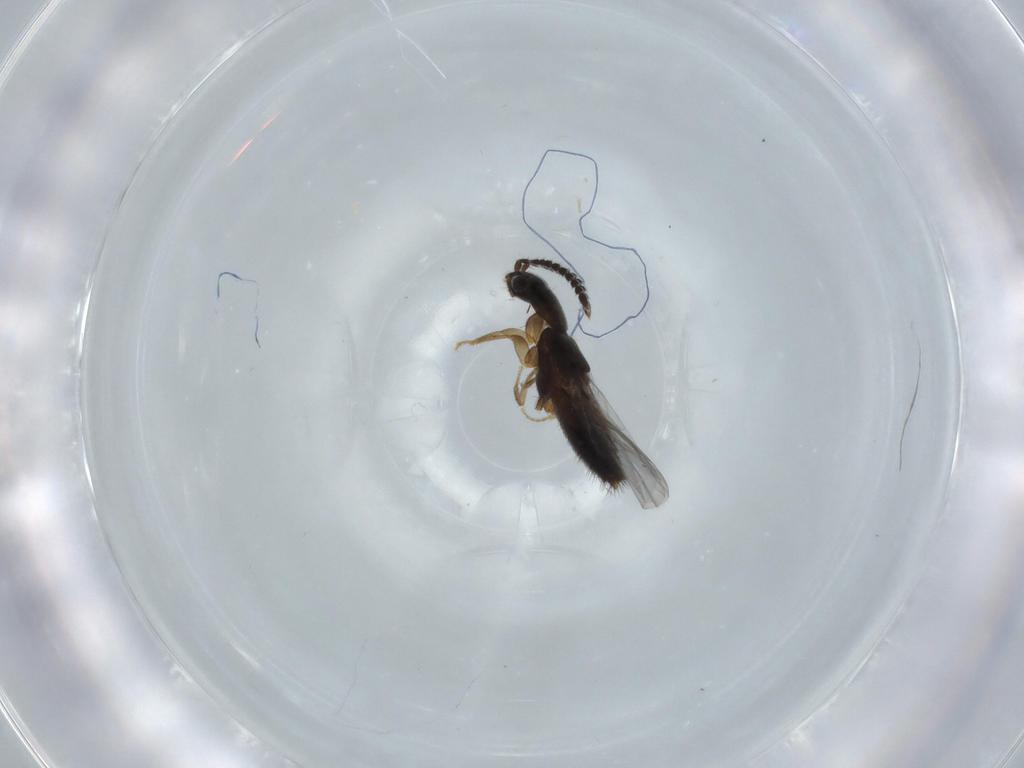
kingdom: Animalia
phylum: Arthropoda
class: Insecta
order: Coleoptera
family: Staphylinidae
